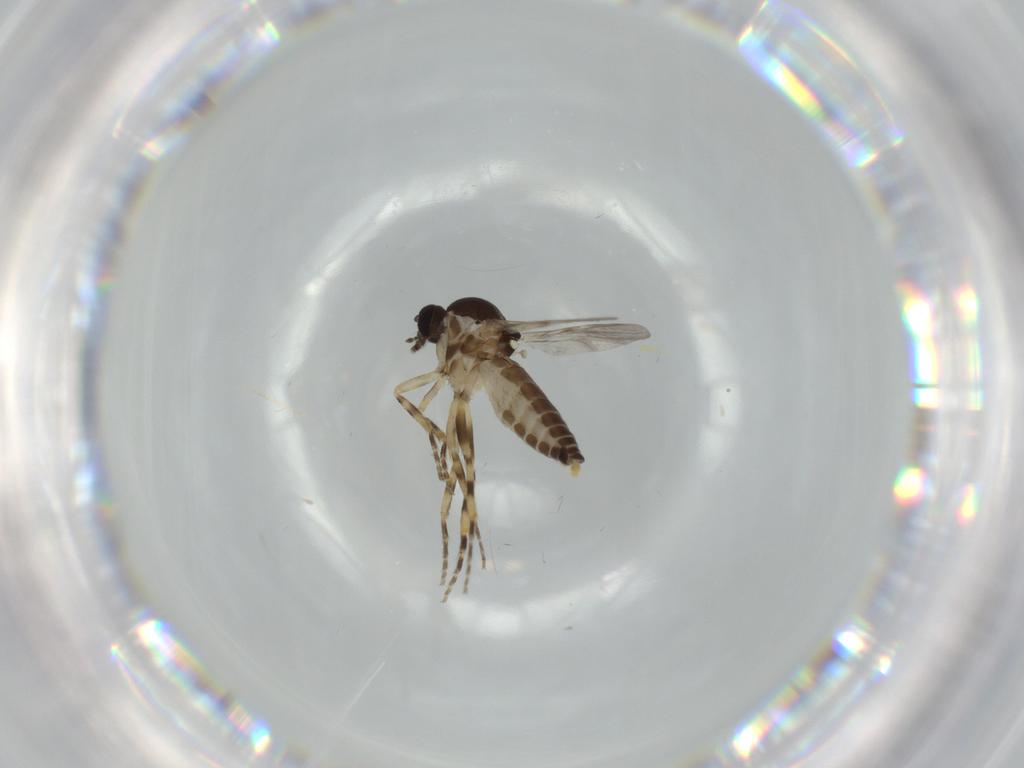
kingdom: Animalia
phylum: Arthropoda
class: Insecta
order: Diptera
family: Ceratopogonidae
